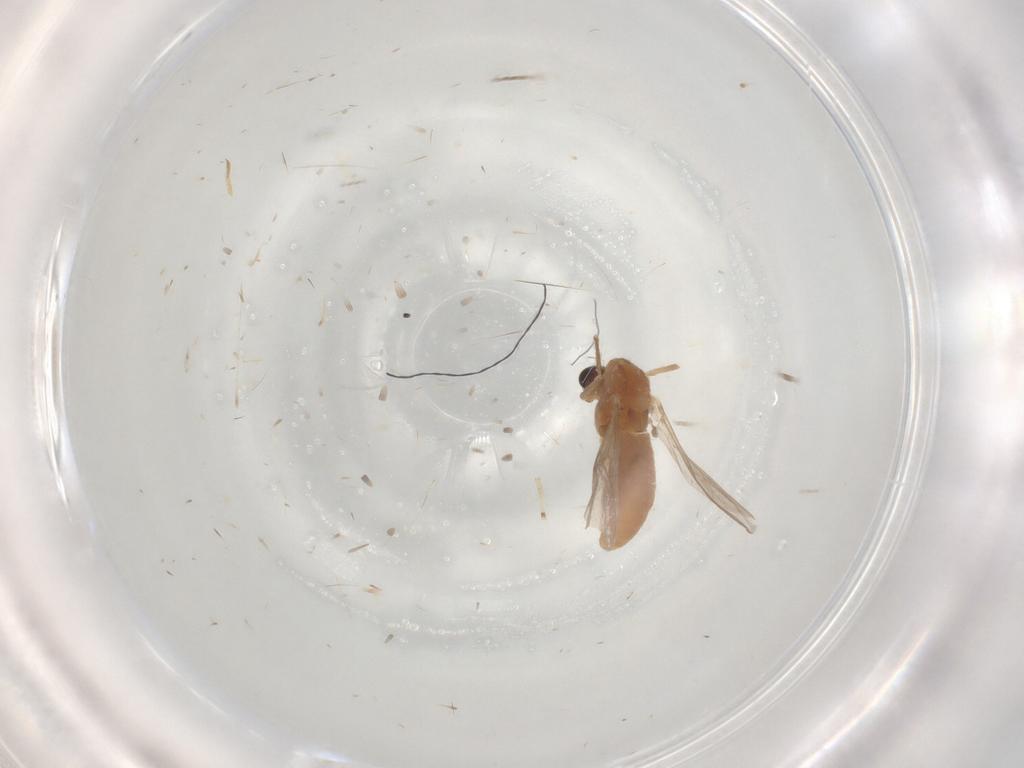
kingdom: Animalia
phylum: Arthropoda
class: Insecta
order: Diptera
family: Chironomidae
